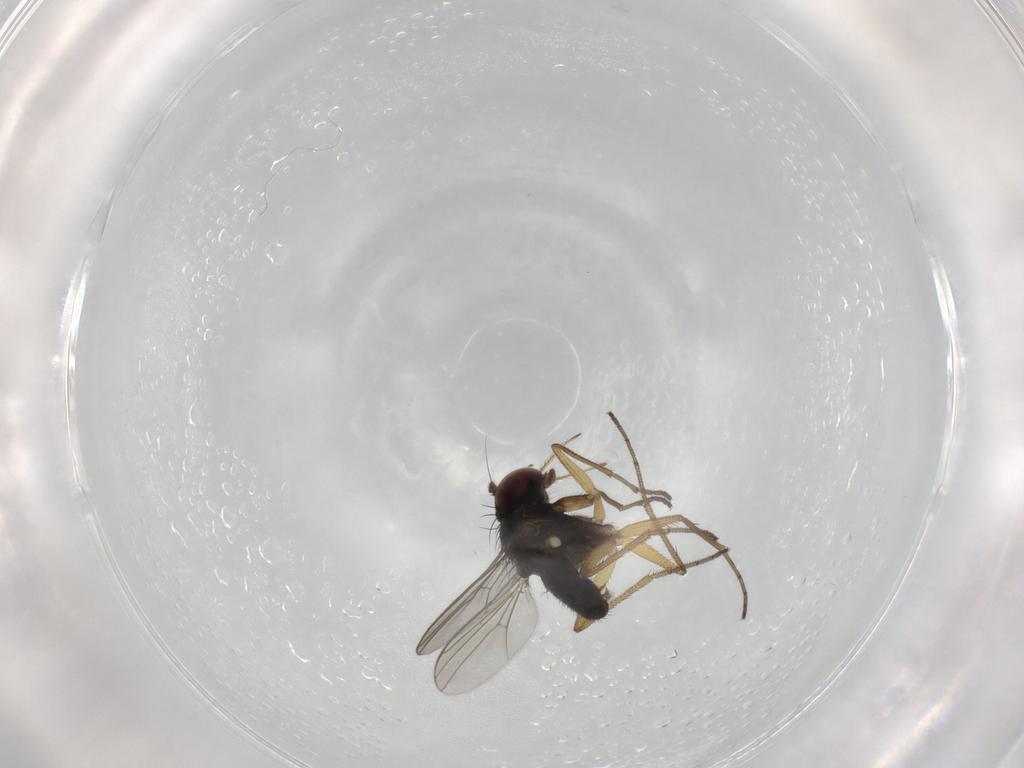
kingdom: Animalia
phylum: Arthropoda
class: Insecta
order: Diptera
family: Dolichopodidae
